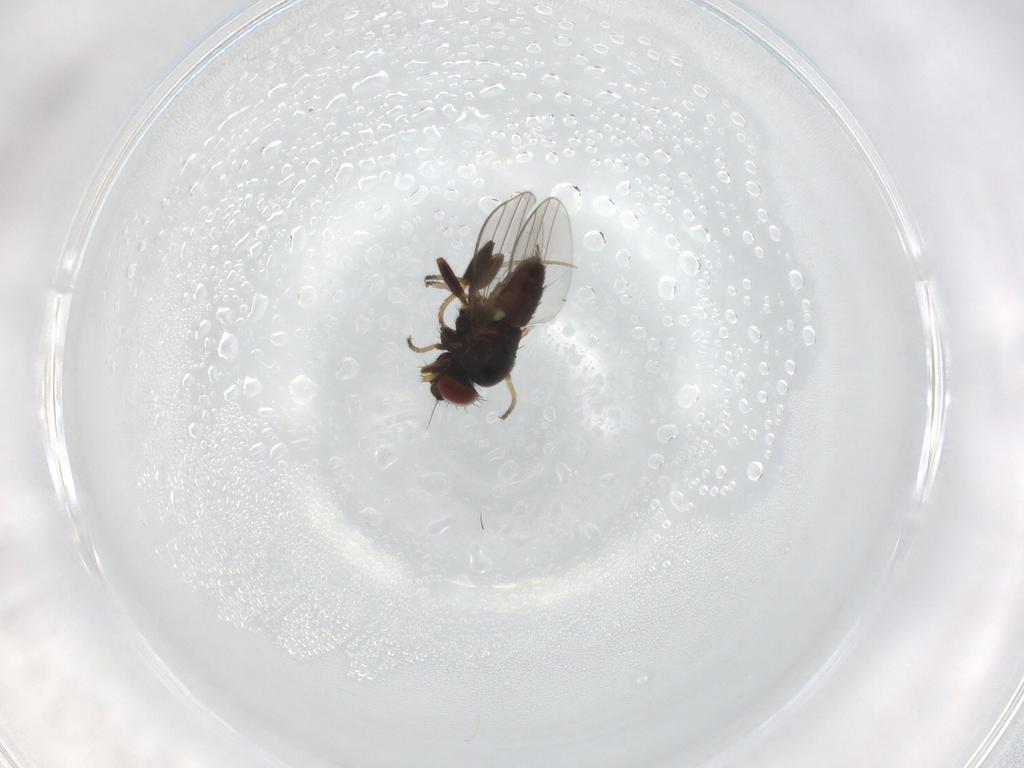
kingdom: Animalia
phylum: Arthropoda
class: Insecta
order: Diptera
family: Milichiidae
